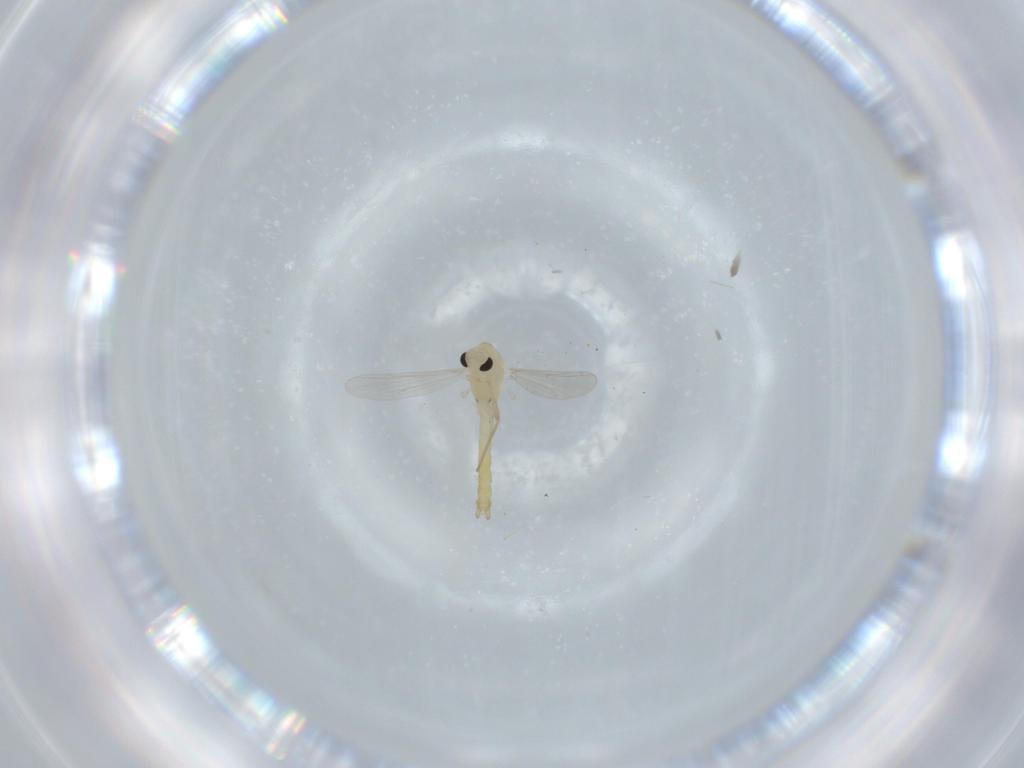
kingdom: Animalia
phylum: Arthropoda
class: Insecta
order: Diptera
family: Chironomidae
